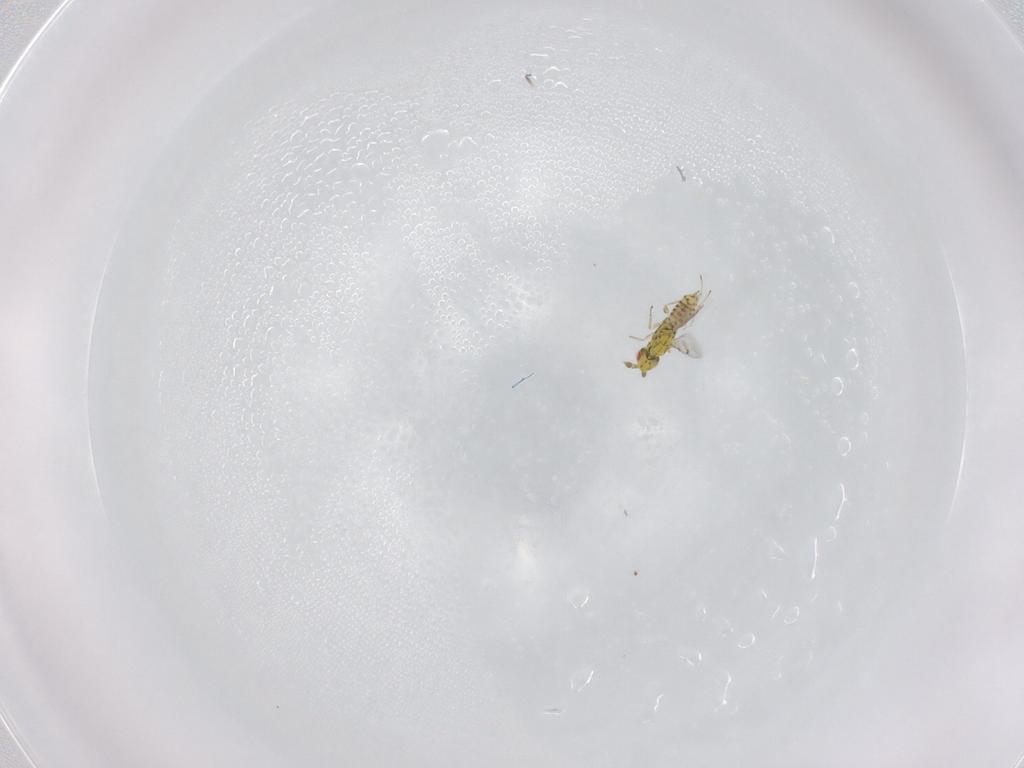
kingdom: Animalia
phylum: Arthropoda
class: Insecta
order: Hymenoptera
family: Eulophidae
